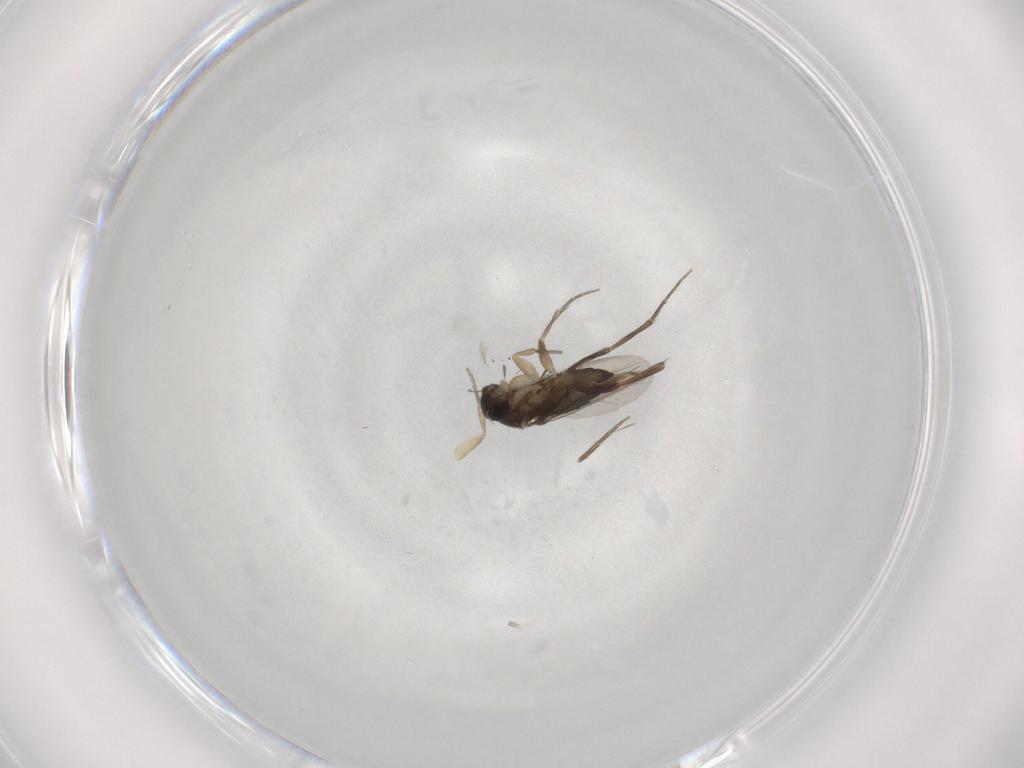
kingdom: Animalia
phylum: Arthropoda
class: Insecta
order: Diptera
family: Phoridae
